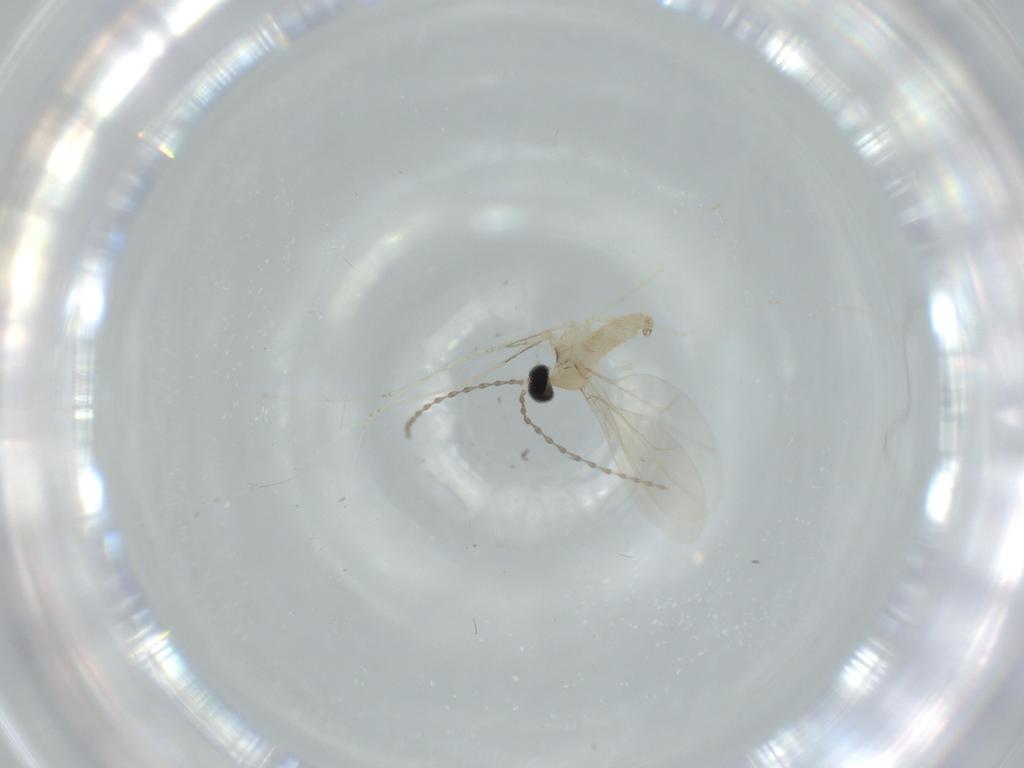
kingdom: Animalia
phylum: Arthropoda
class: Insecta
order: Diptera
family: Cecidomyiidae
